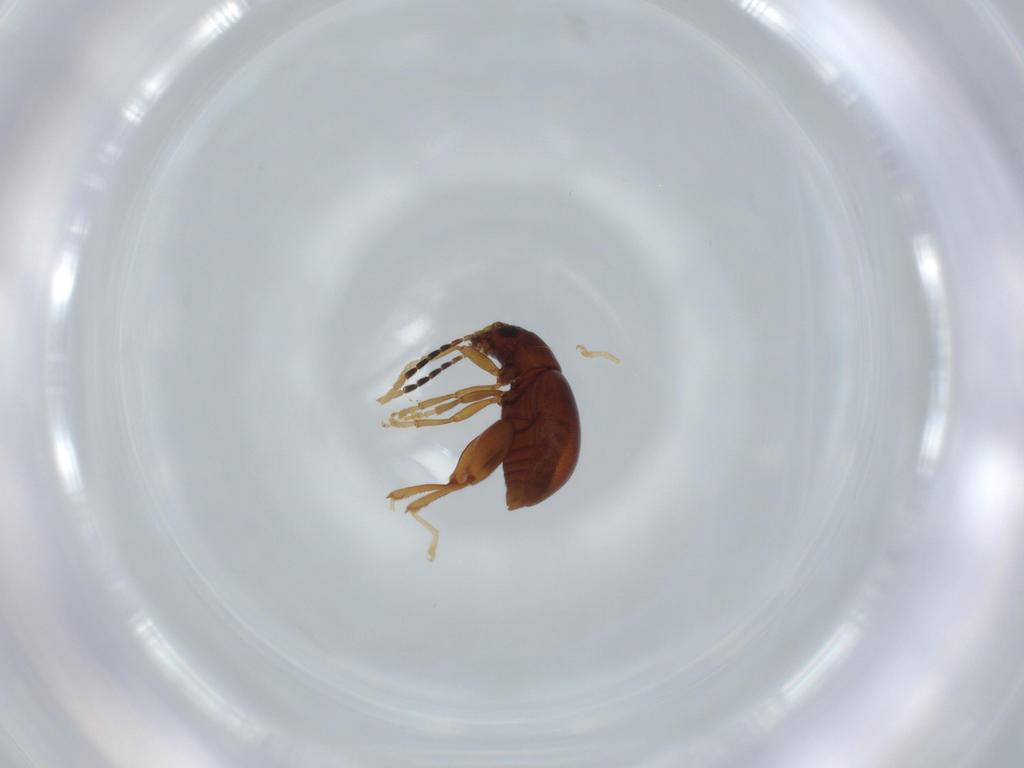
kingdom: Animalia
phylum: Arthropoda
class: Insecta
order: Coleoptera
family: Chrysomelidae
